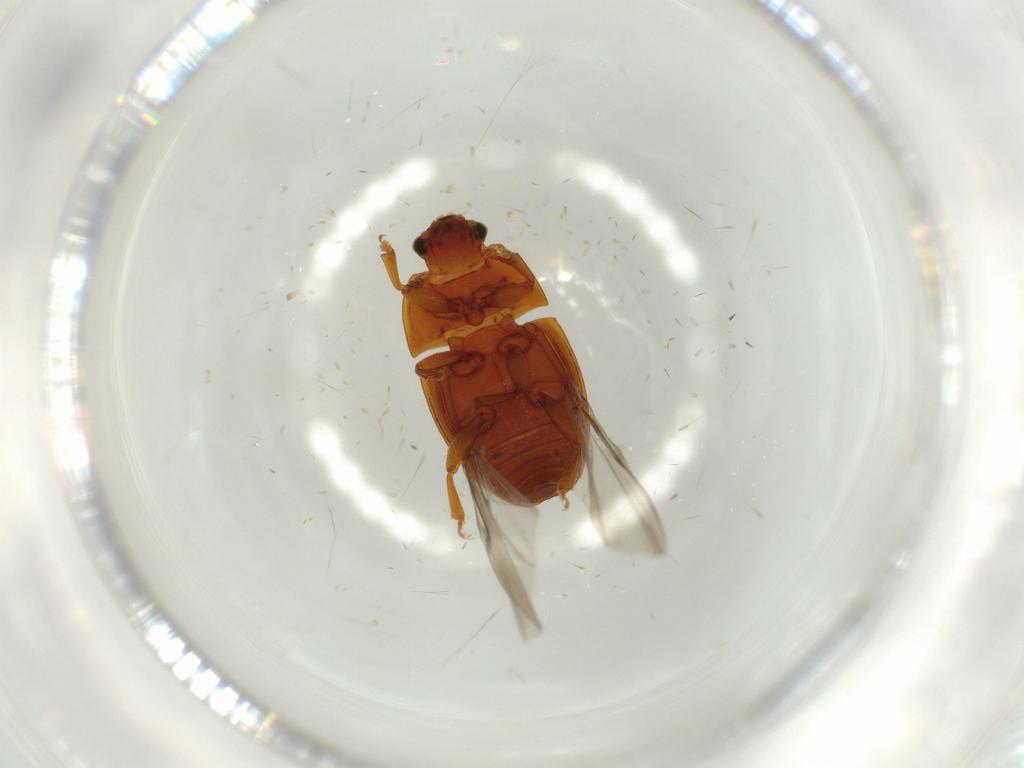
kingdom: Animalia
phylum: Arthropoda
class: Insecta
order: Coleoptera
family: Nitidulidae
